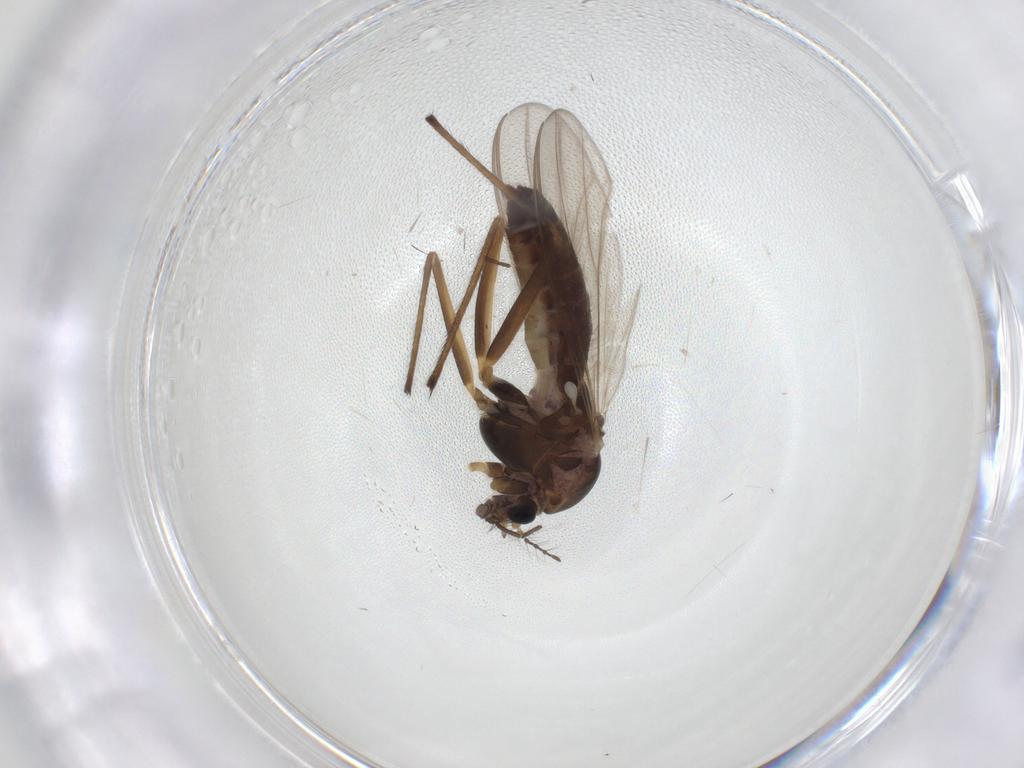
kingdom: Animalia
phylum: Arthropoda
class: Insecta
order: Diptera
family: Chironomidae
